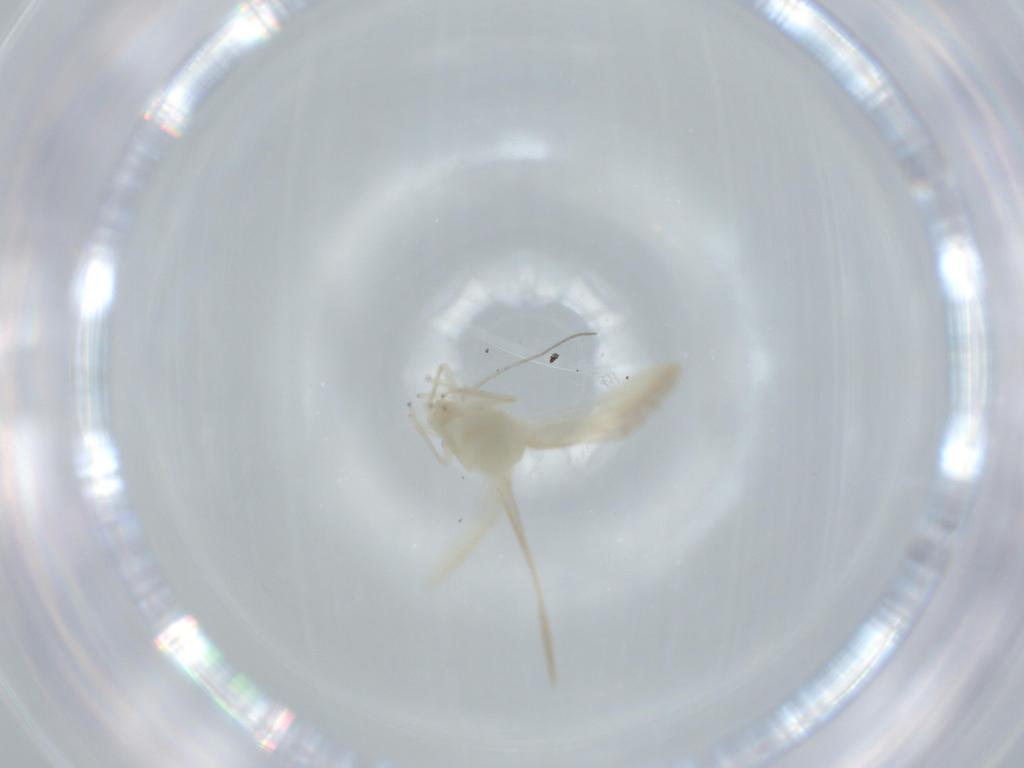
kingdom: Animalia
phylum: Arthropoda
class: Insecta
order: Psocodea
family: Caeciliusidae
